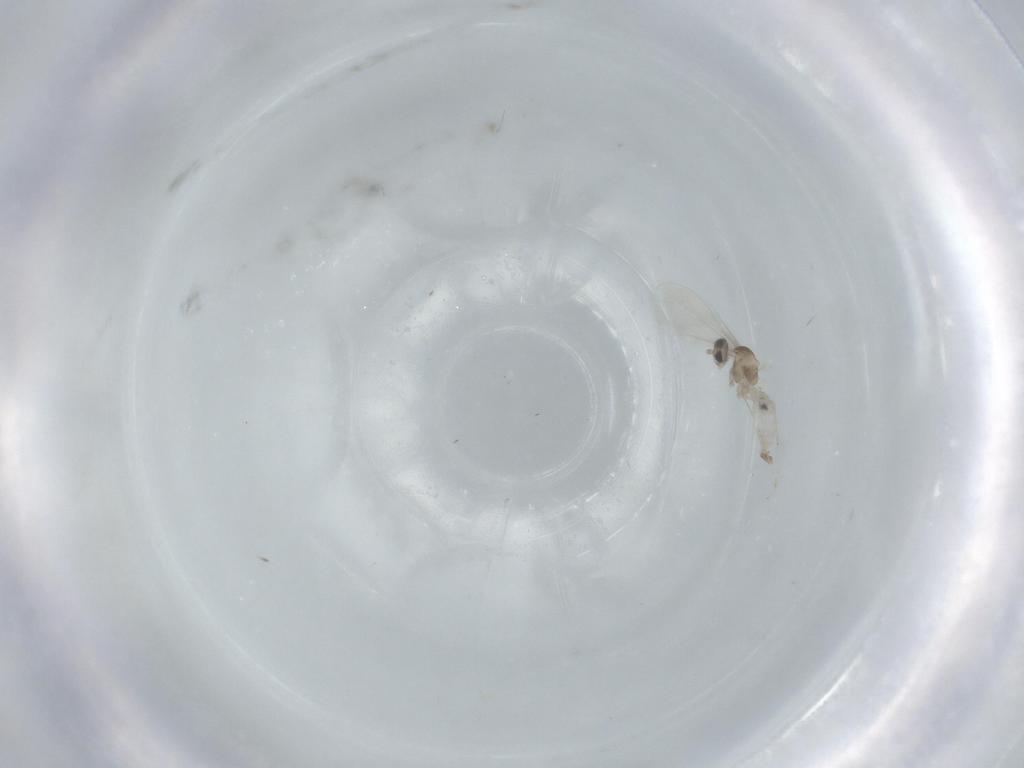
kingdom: Animalia
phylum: Arthropoda
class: Insecta
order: Diptera
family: Cecidomyiidae
